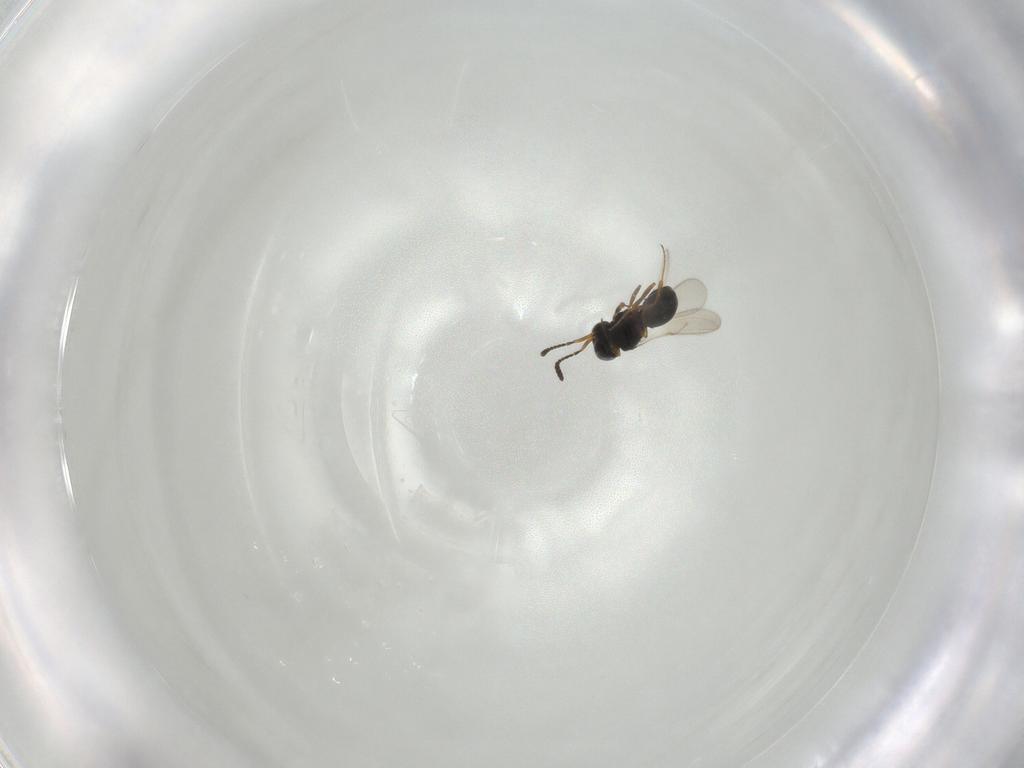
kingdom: Animalia
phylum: Arthropoda
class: Insecta
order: Hymenoptera
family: Scelionidae
